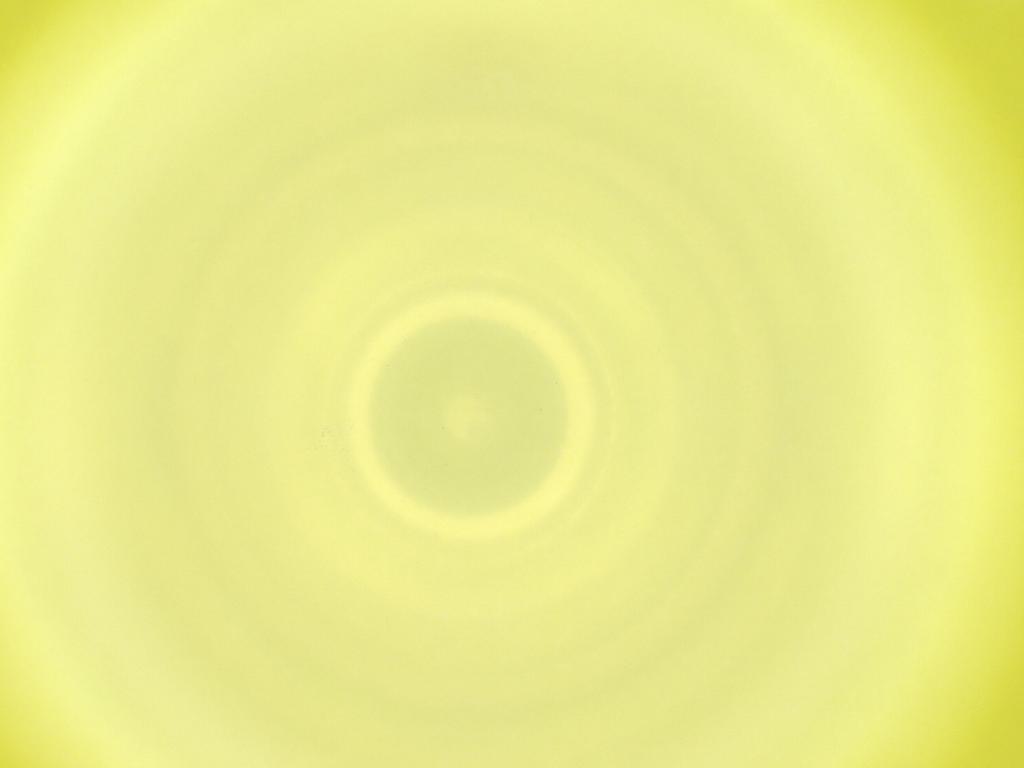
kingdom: Animalia
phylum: Arthropoda
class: Insecta
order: Diptera
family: Cecidomyiidae
